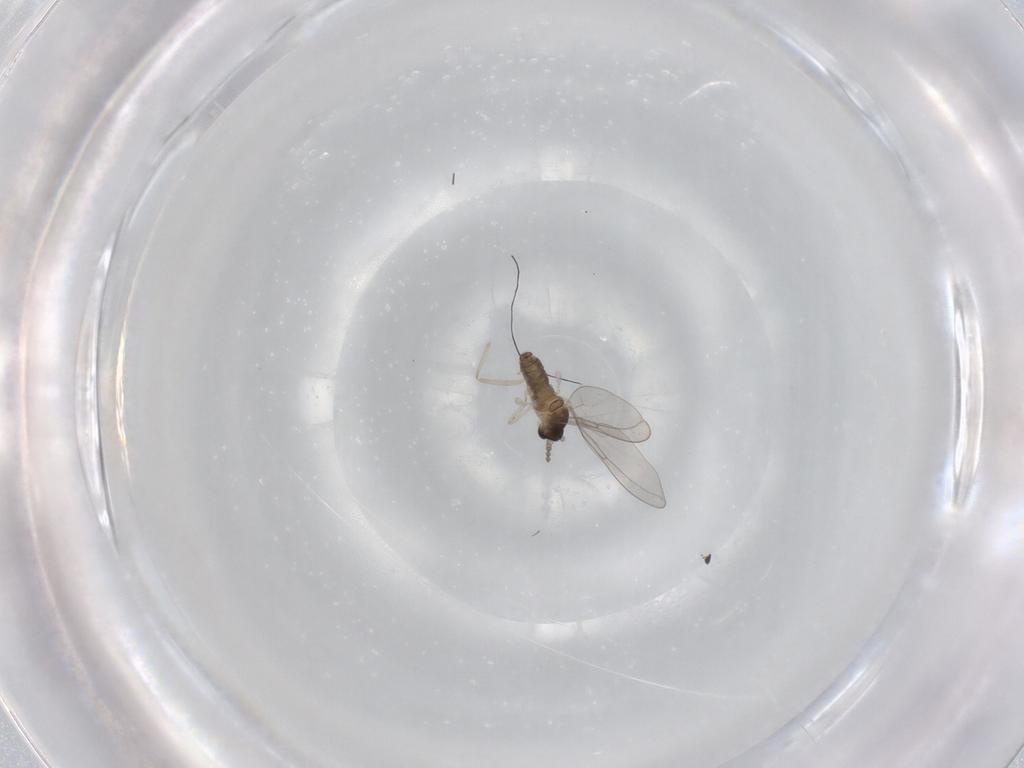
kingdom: Animalia
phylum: Arthropoda
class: Insecta
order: Diptera
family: Cecidomyiidae
